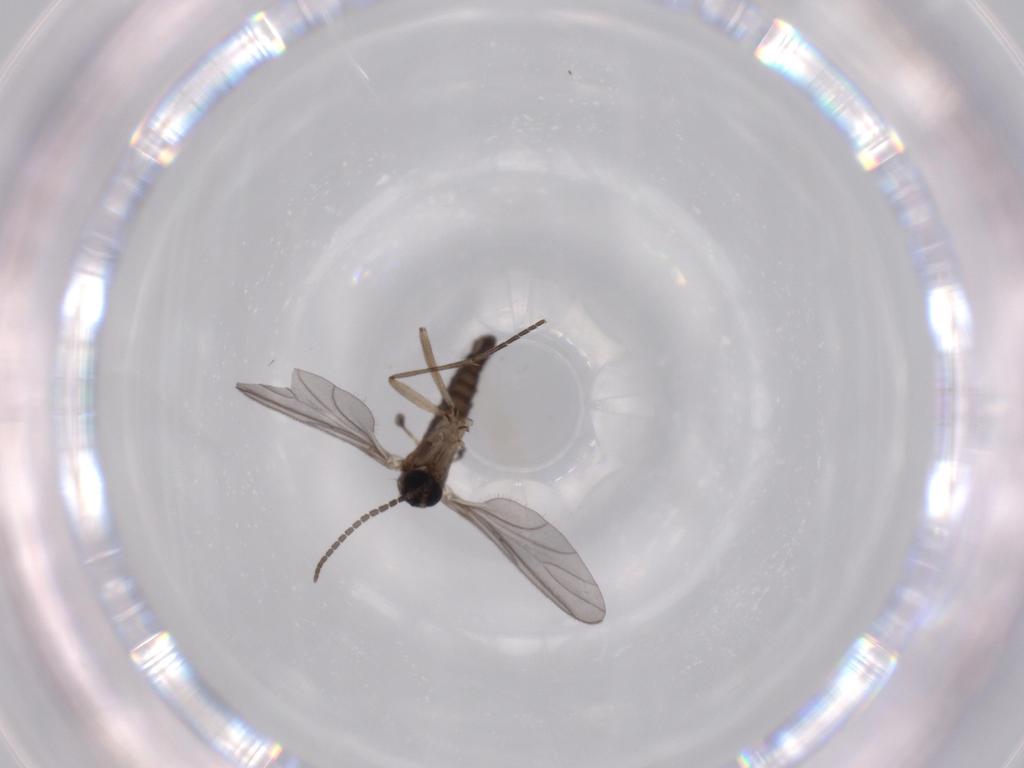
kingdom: Animalia
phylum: Arthropoda
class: Insecta
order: Diptera
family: Sciaridae
